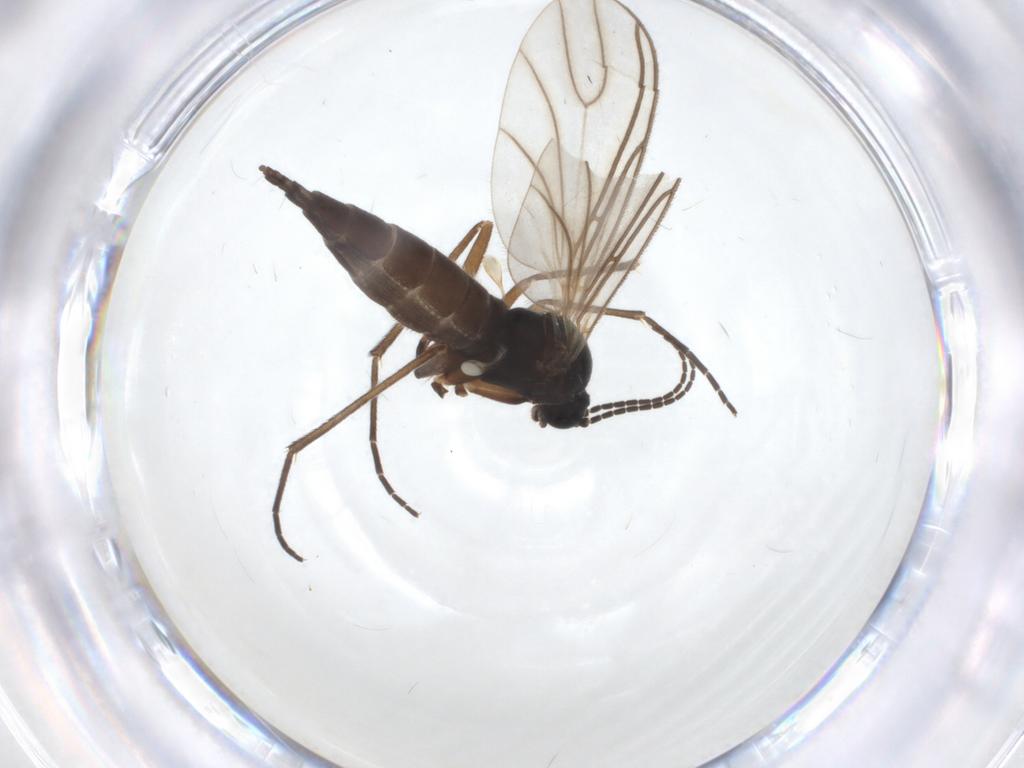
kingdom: Animalia
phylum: Arthropoda
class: Insecta
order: Diptera
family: Sciaridae
